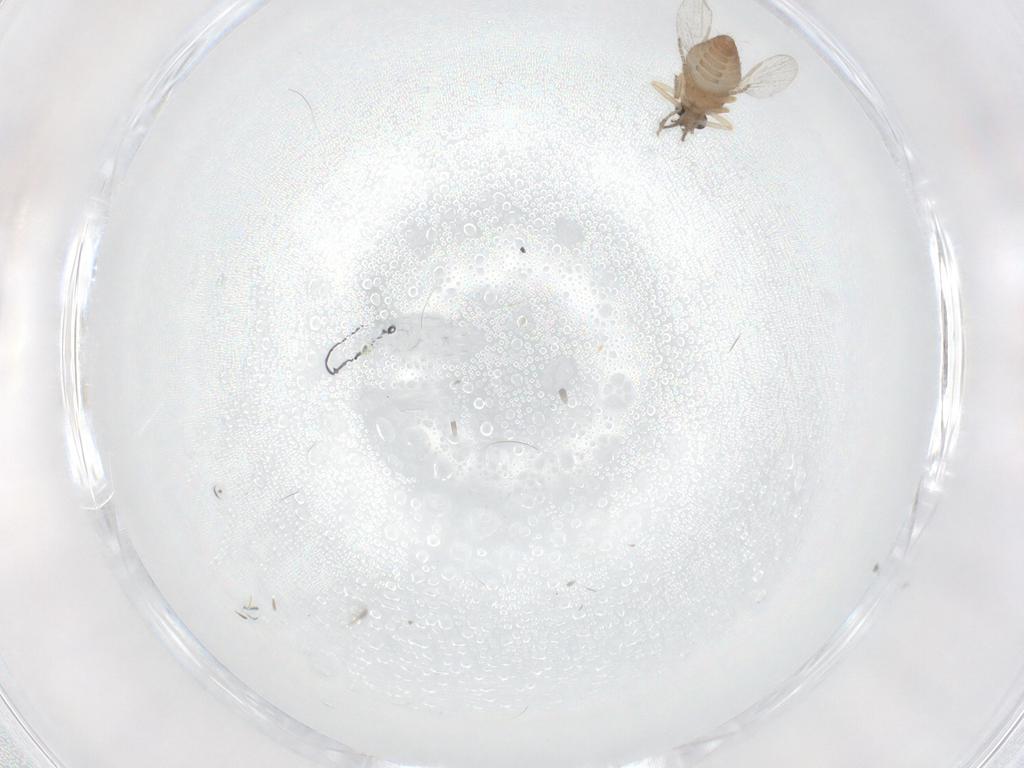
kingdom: Animalia
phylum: Arthropoda
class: Insecta
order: Diptera
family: Ceratopogonidae
